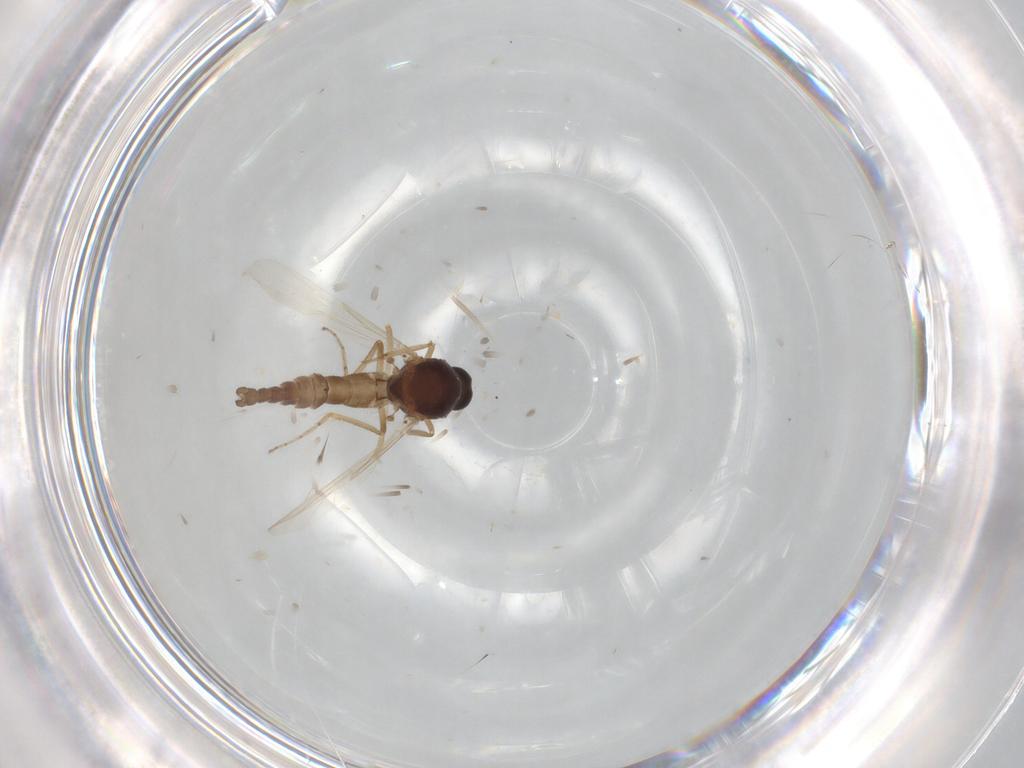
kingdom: Animalia
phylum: Arthropoda
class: Insecta
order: Diptera
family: Ceratopogonidae
